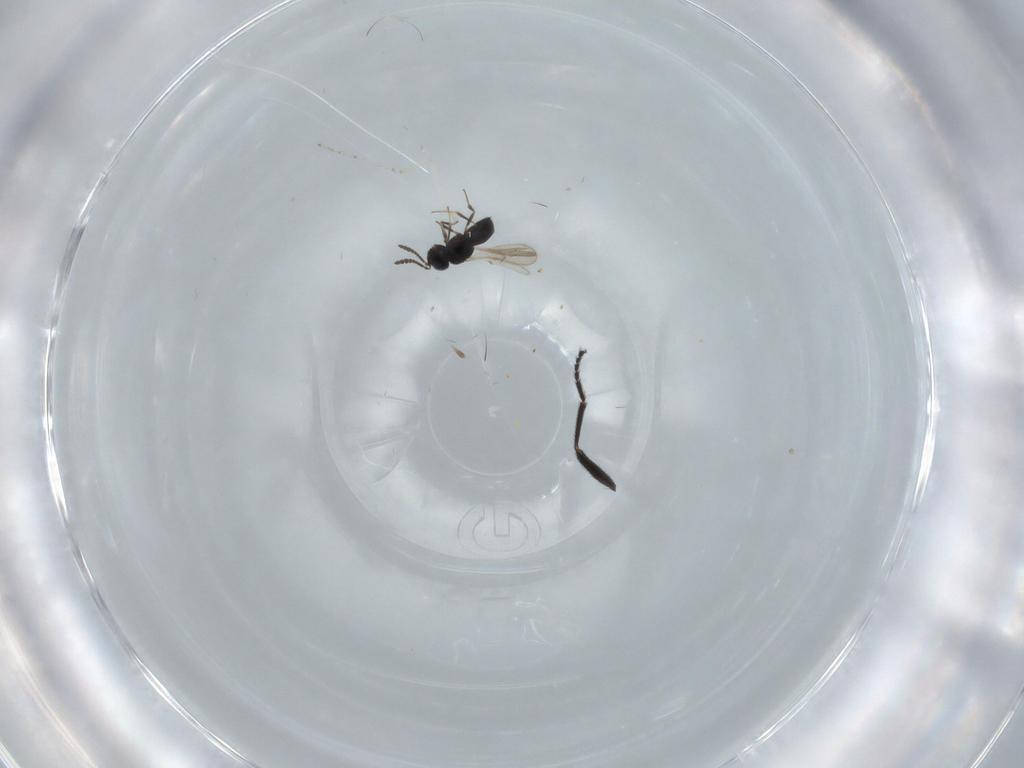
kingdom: Animalia
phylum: Arthropoda
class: Insecta
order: Hymenoptera
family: Scelionidae
